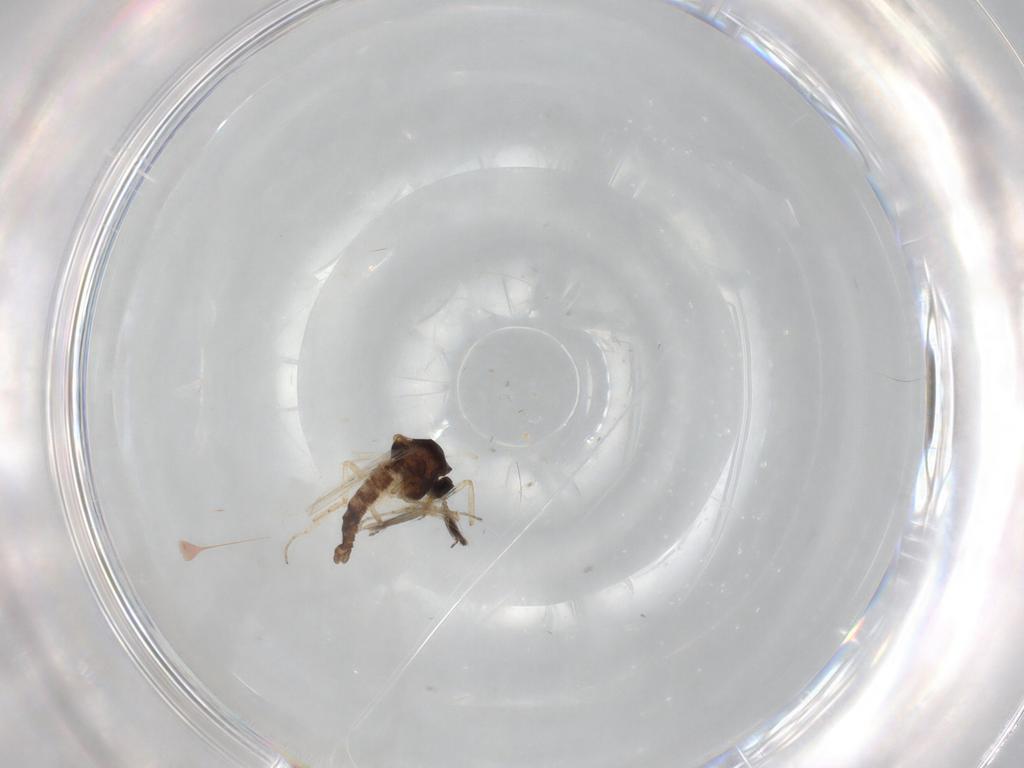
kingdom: Animalia
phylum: Arthropoda
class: Insecta
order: Diptera
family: Ceratopogonidae
